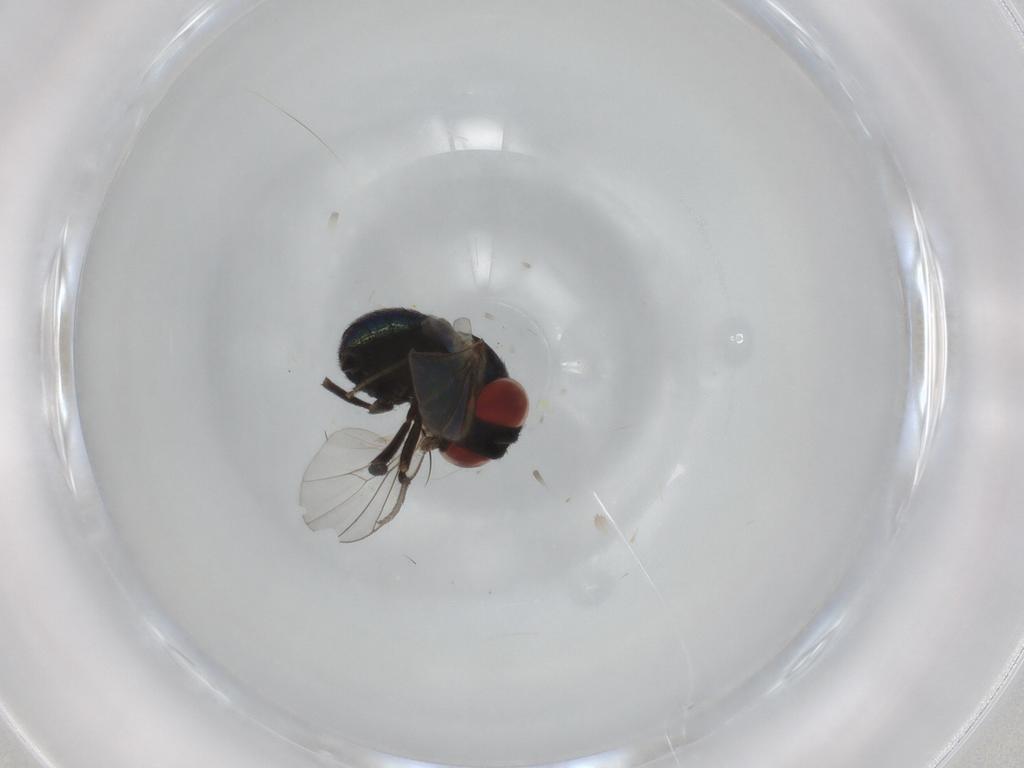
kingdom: Animalia
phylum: Arthropoda
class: Insecta
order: Diptera
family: Cryptochetidae
